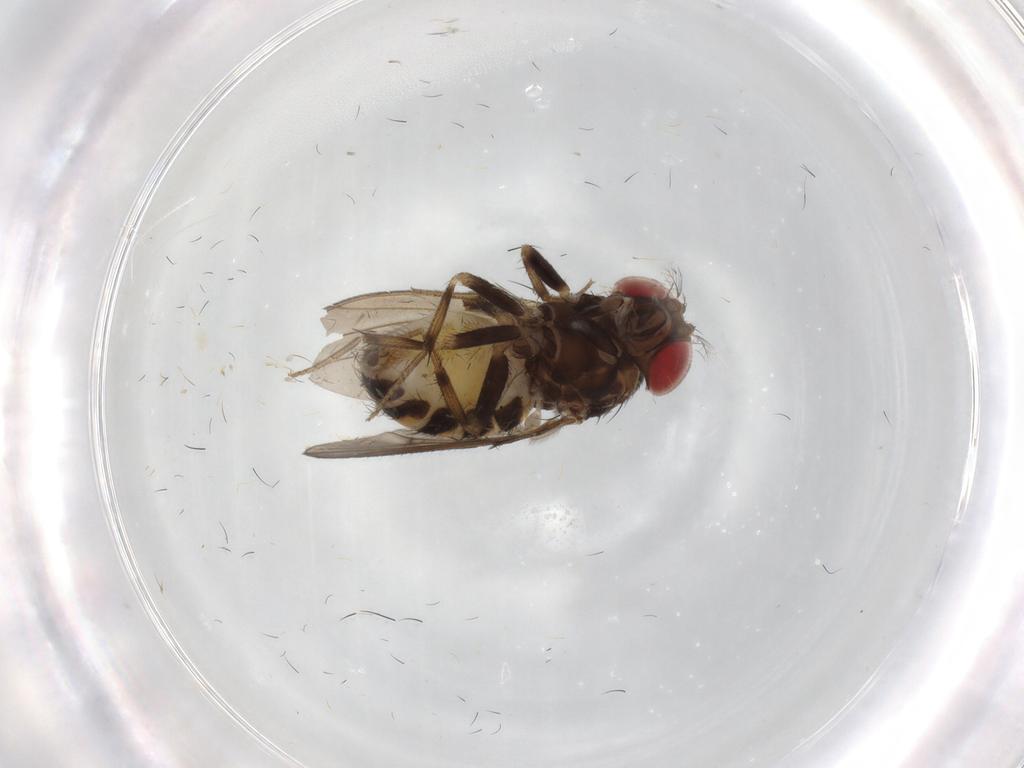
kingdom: Animalia
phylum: Arthropoda
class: Insecta
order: Diptera
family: Drosophilidae
